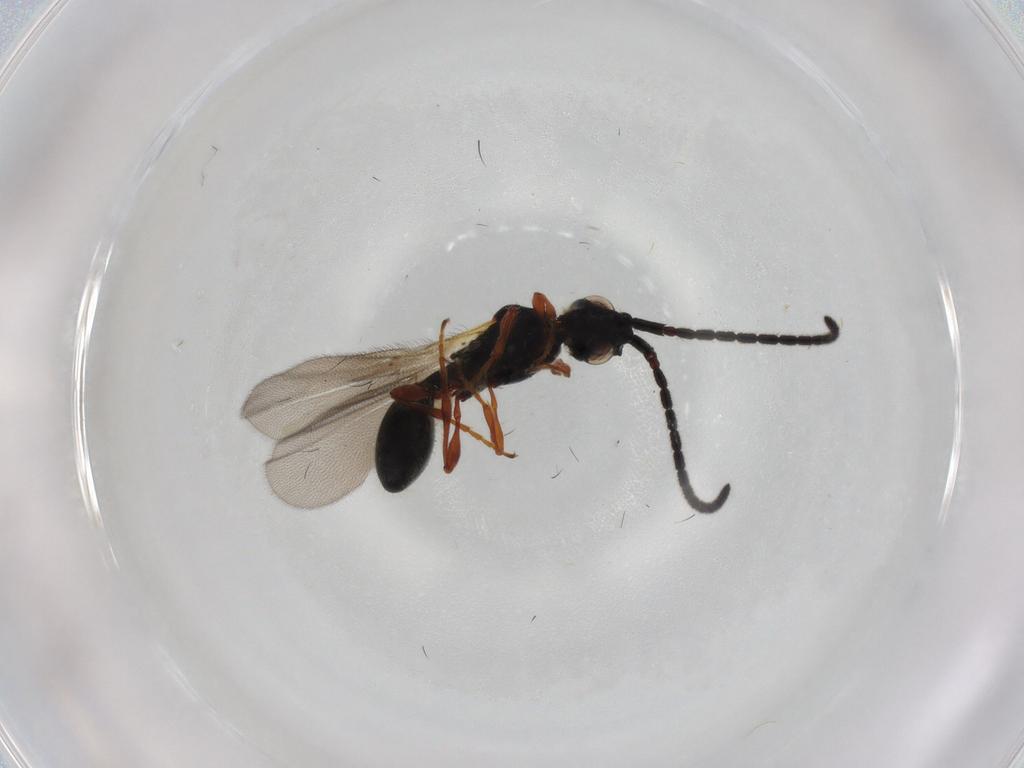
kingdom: Animalia
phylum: Arthropoda
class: Insecta
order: Hymenoptera
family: Diapriidae
